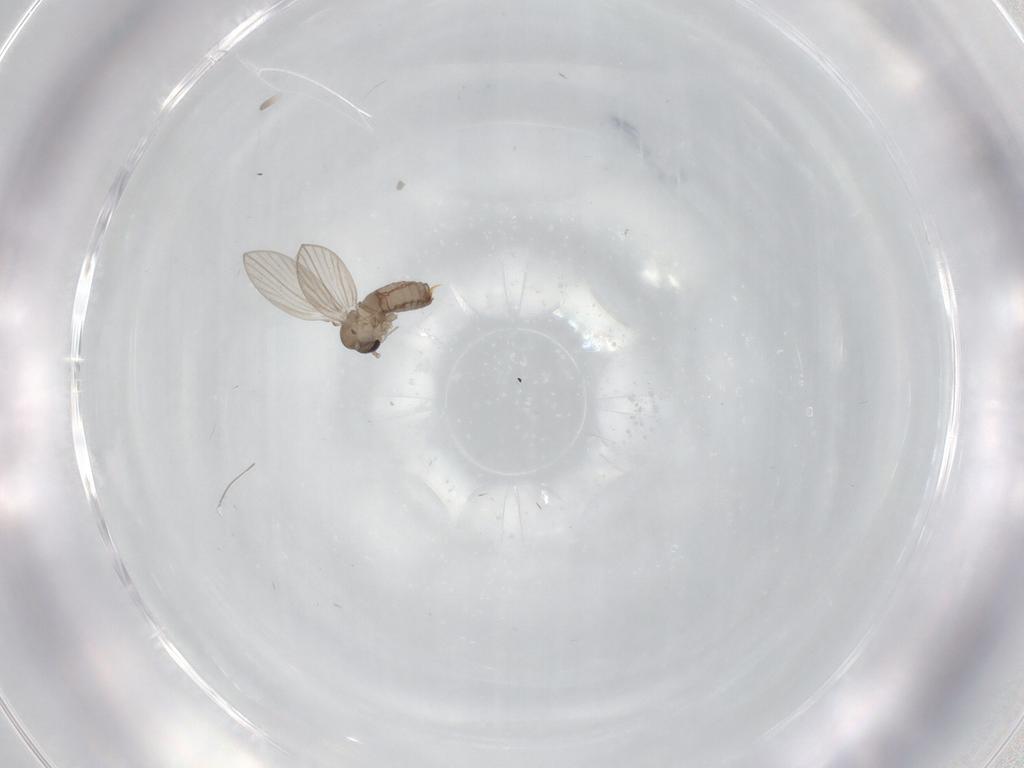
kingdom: Animalia
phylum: Arthropoda
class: Insecta
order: Diptera
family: Psychodidae
